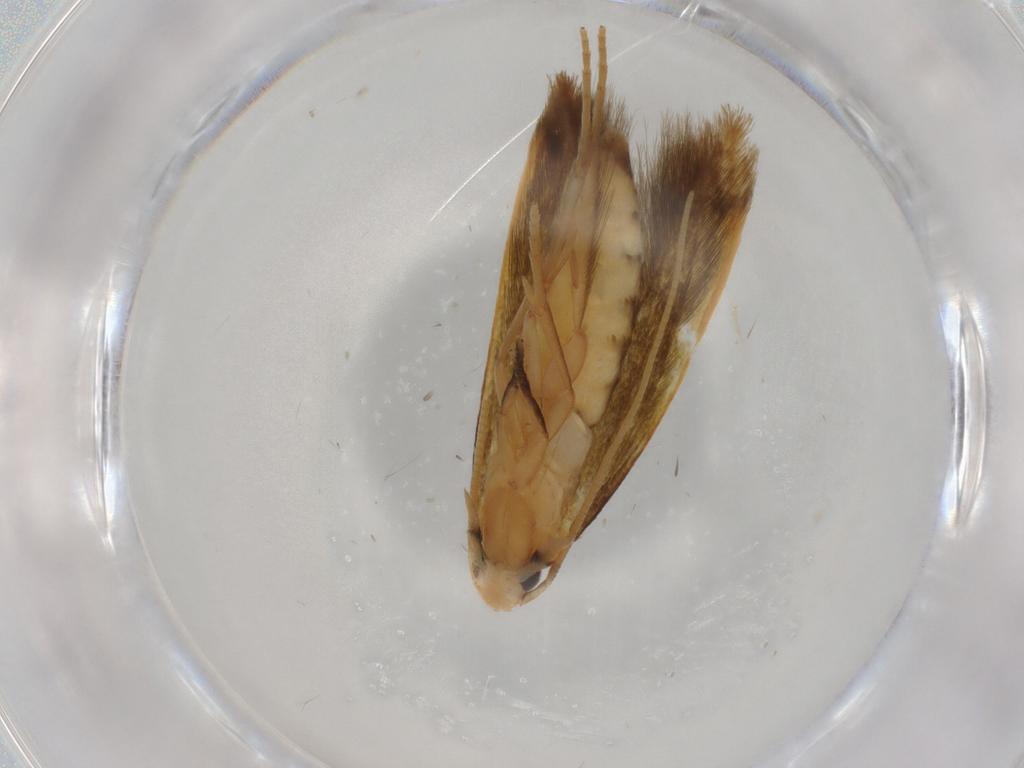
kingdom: Animalia
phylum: Arthropoda
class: Insecta
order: Lepidoptera
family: Tineidae
